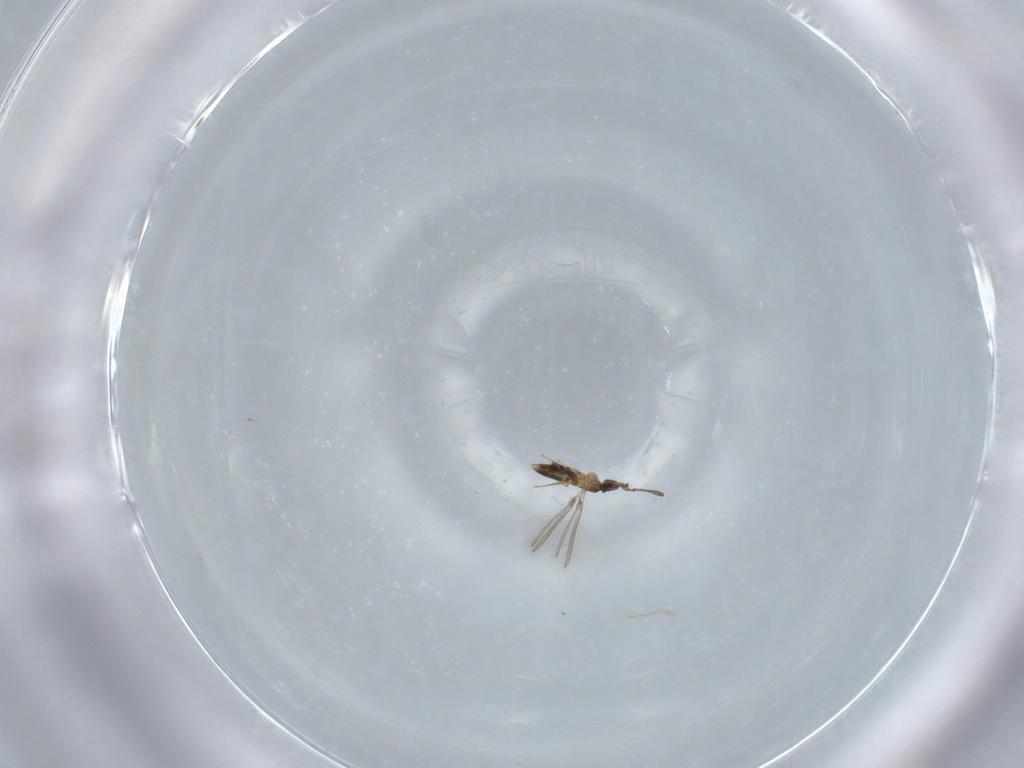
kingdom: Animalia
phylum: Arthropoda
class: Insecta
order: Hymenoptera
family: Mymaridae
